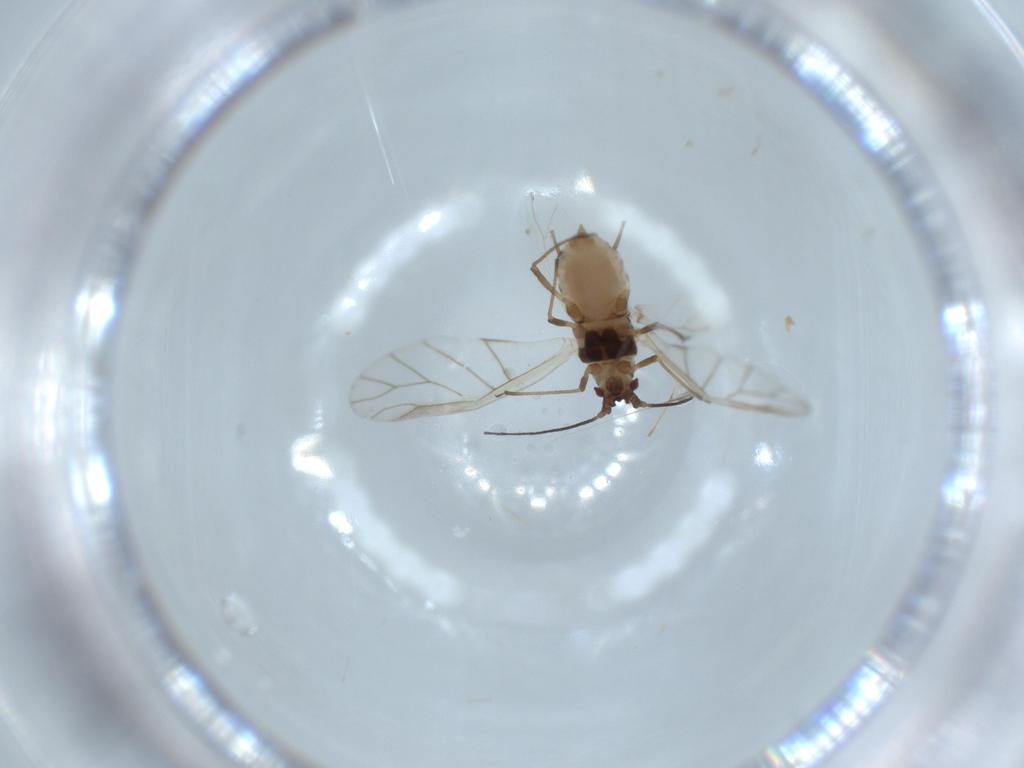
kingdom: Animalia
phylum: Arthropoda
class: Insecta
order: Hemiptera
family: Aphididae
